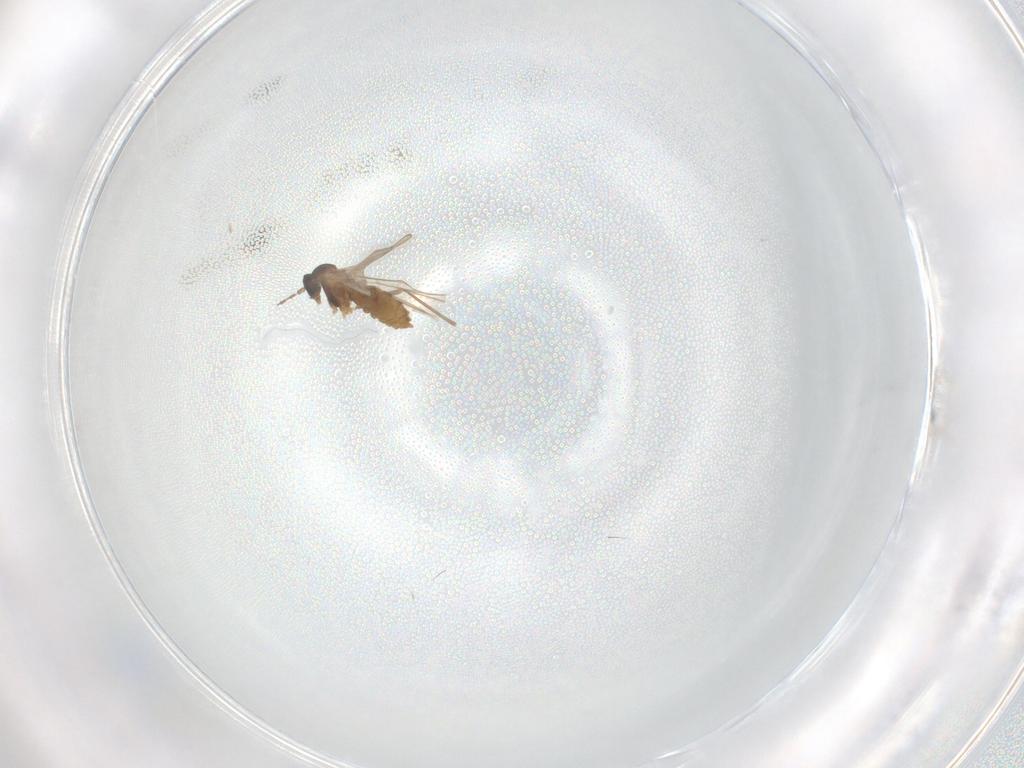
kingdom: Animalia
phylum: Arthropoda
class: Insecta
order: Diptera
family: Cecidomyiidae
